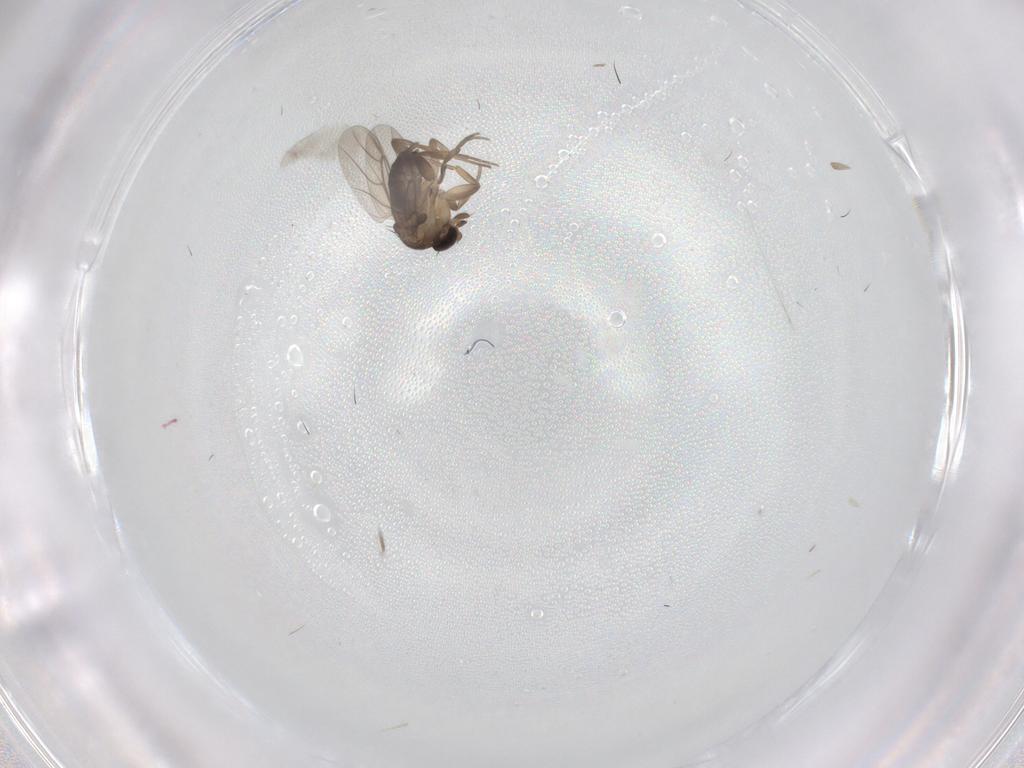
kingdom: Animalia
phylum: Arthropoda
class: Insecta
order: Diptera
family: Phoridae
